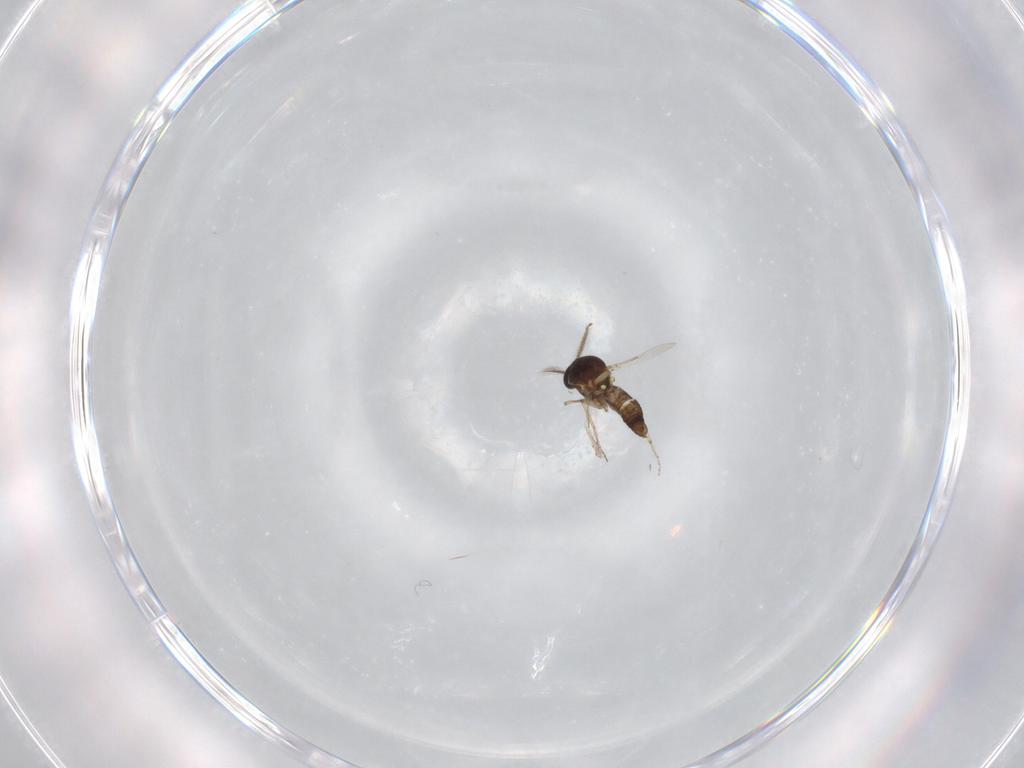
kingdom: Animalia
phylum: Arthropoda
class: Insecta
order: Diptera
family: Ceratopogonidae
